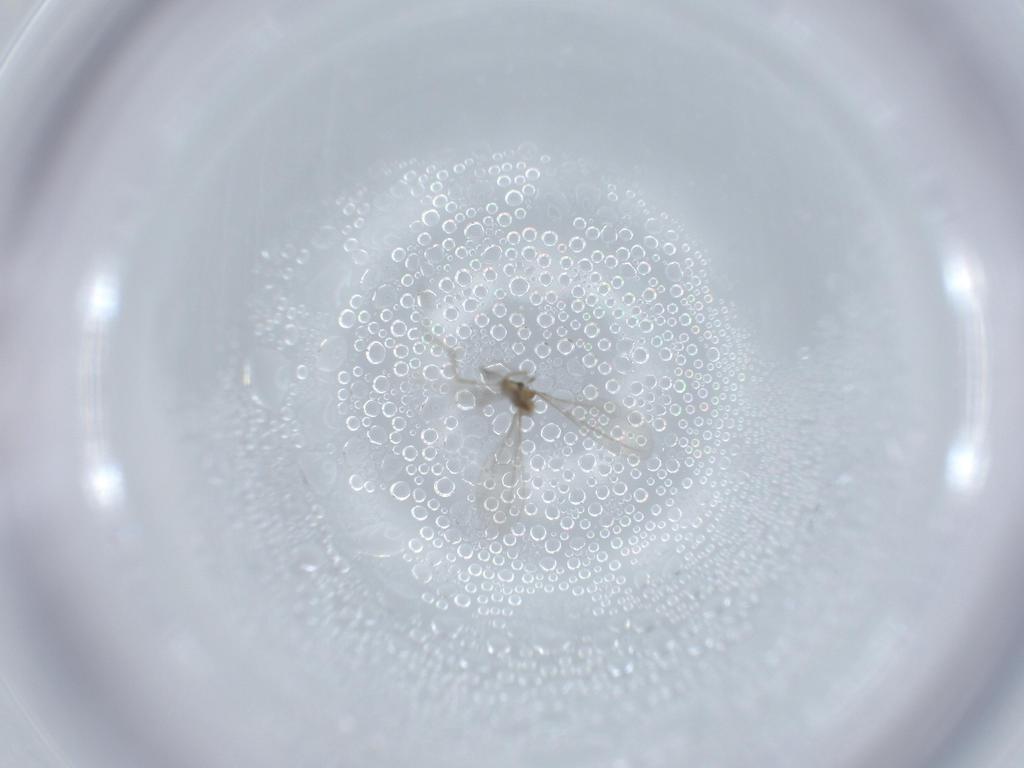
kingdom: Animalia
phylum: Arthropoda
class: Insecta
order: Diptera
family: Cecidomyiidae
